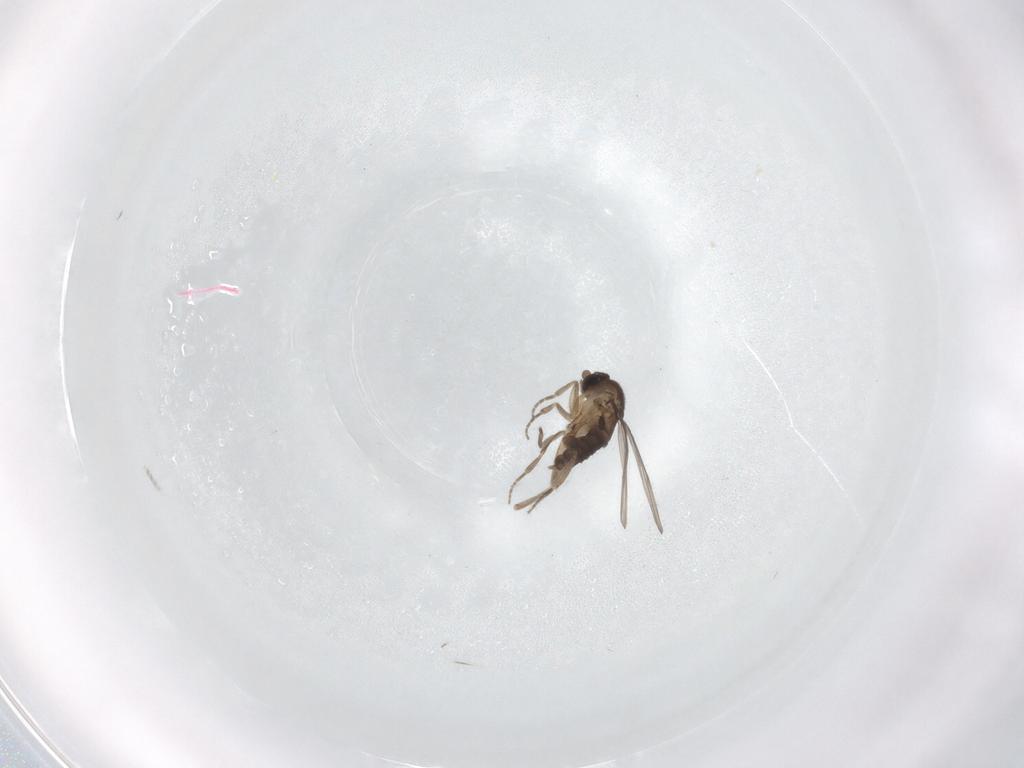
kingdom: Animalia
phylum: Arthropoda
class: Insecta
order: Diptera
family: Phoridae
